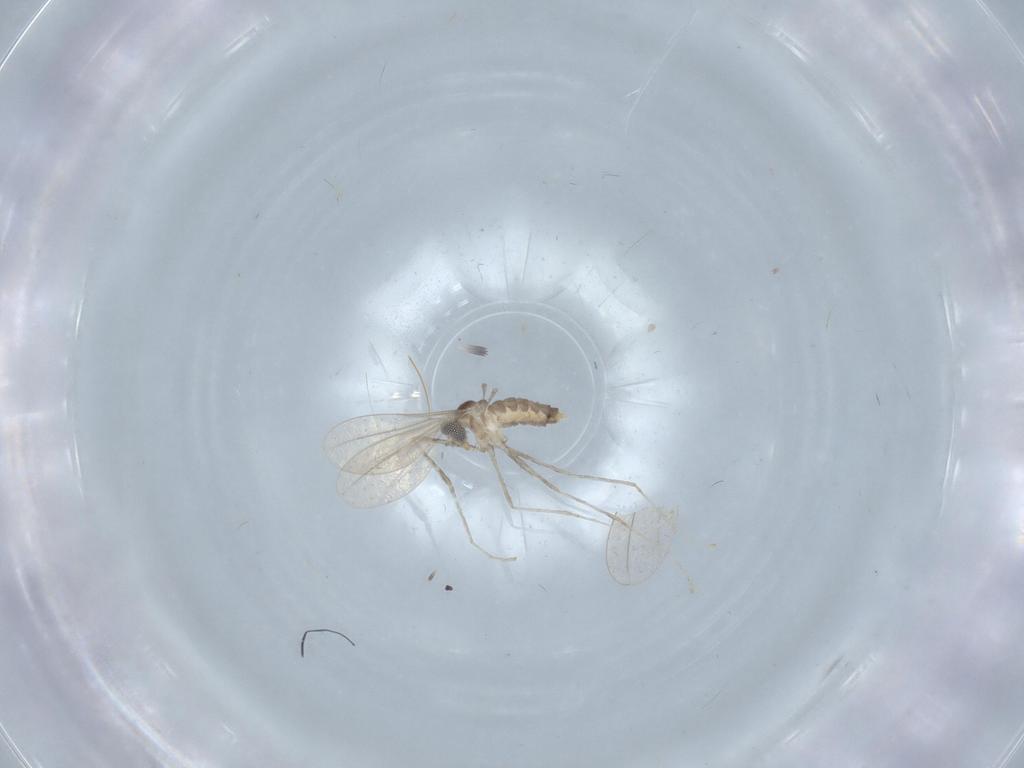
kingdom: Animalia
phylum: Arthropoda
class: Insecta
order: Diptera
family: Cecidomyiidae
